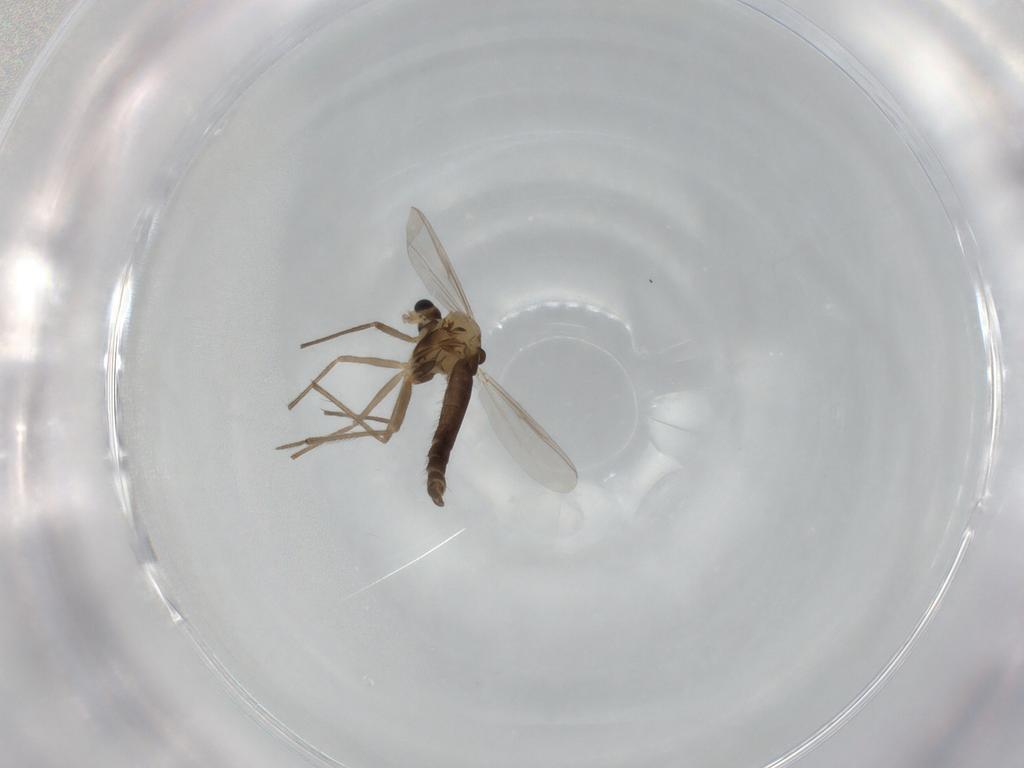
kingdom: Animalia
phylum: Arthropoda
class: Insecta
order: Diptera
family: Chironomidae
